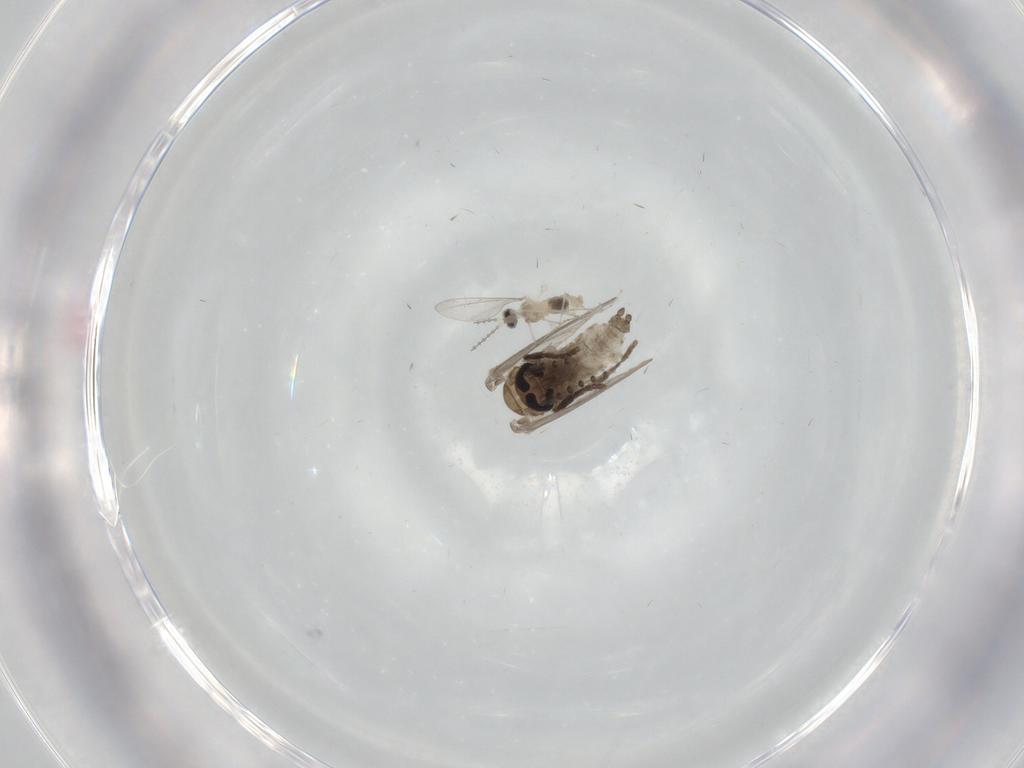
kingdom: Animalia
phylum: Arthropoda
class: Insecta
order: Diptera
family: Psychodidae
